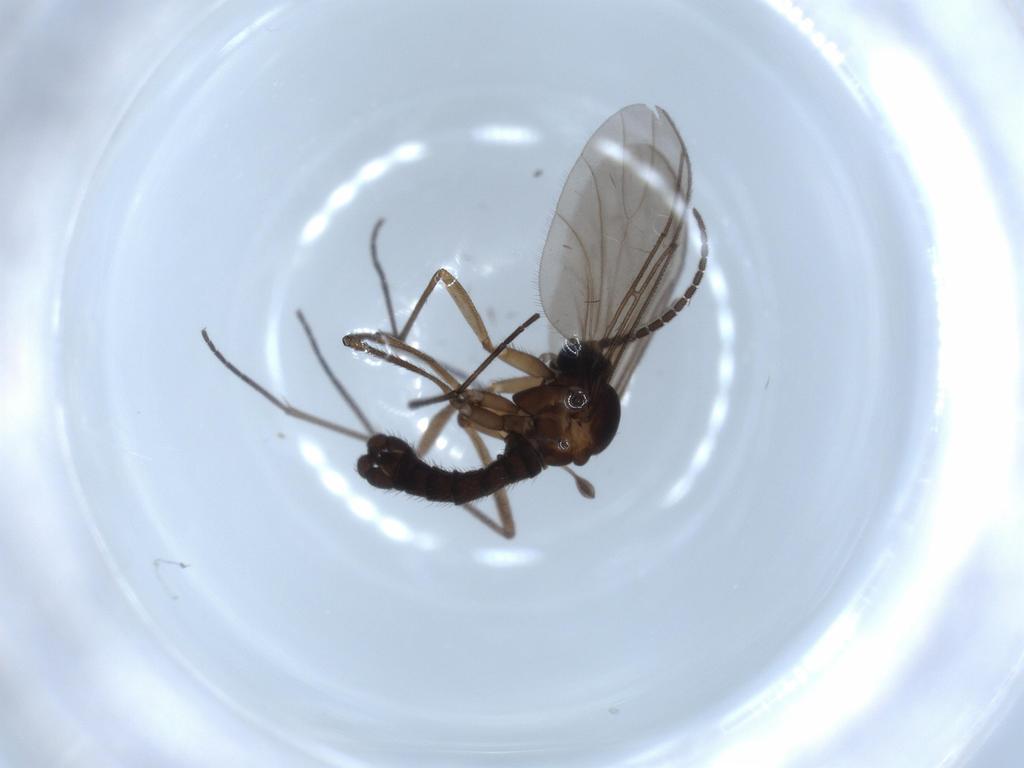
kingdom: Animalia
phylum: Arthropoda
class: Insecta
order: Diptera
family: Sciaridae
